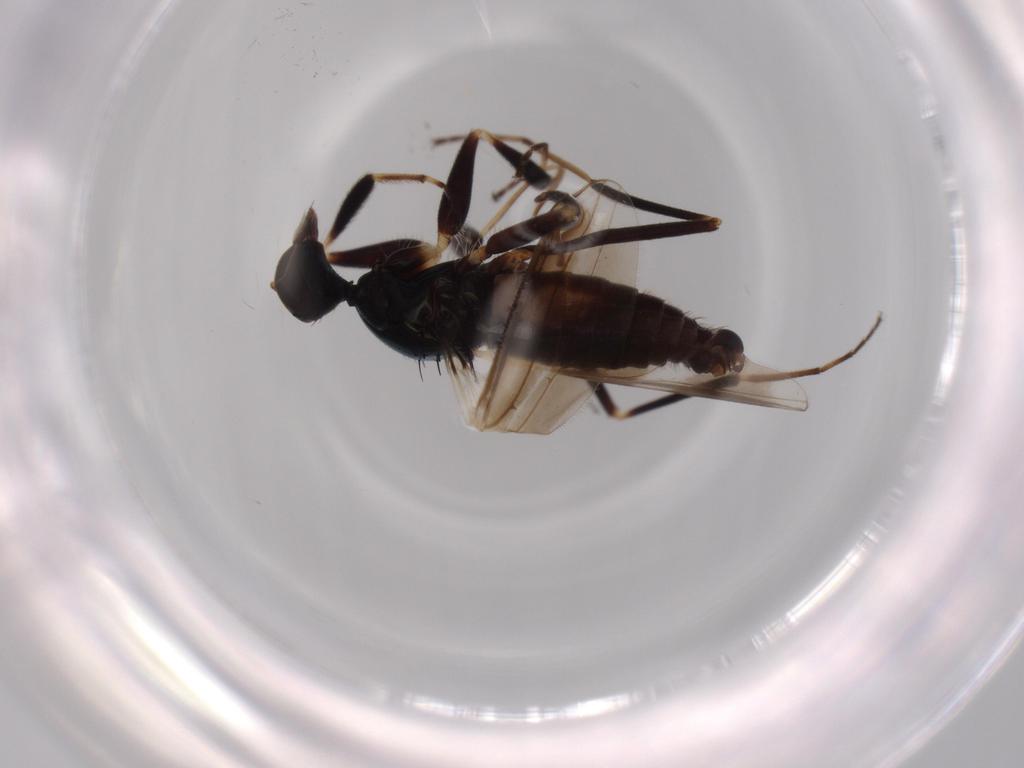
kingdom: Animalia
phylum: Arthropoda
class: Insecta
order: Diptera
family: Hybotidae
